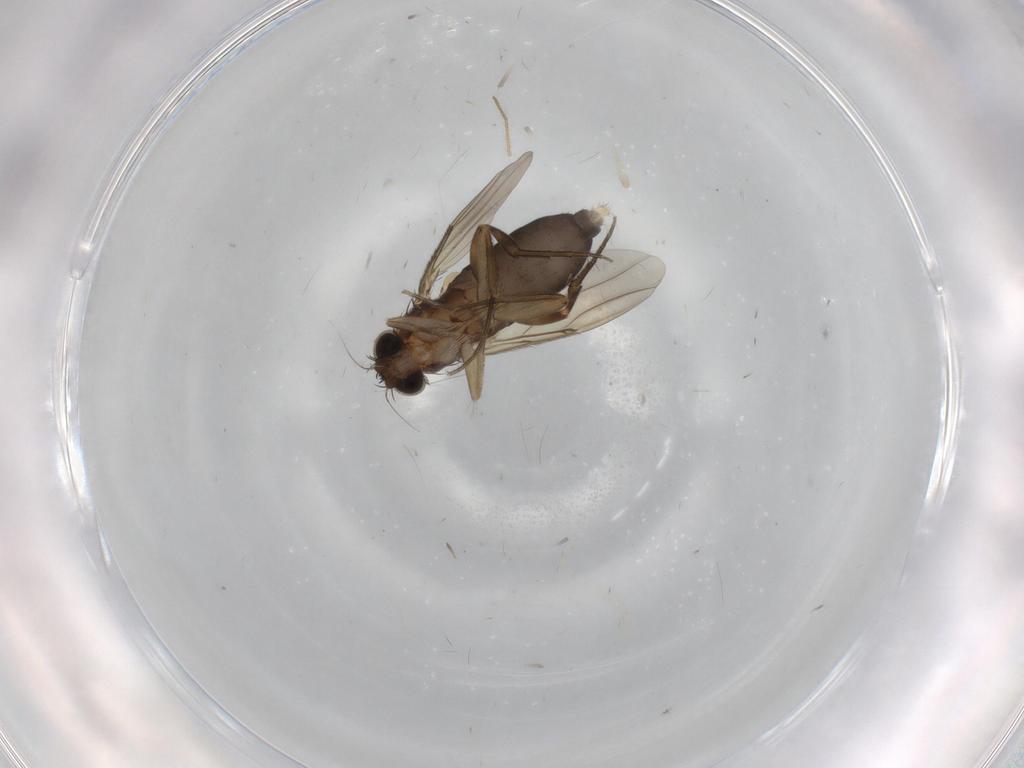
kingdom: Animalia
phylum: Arthropoda
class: Insecta
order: Diptera
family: Phoridae
